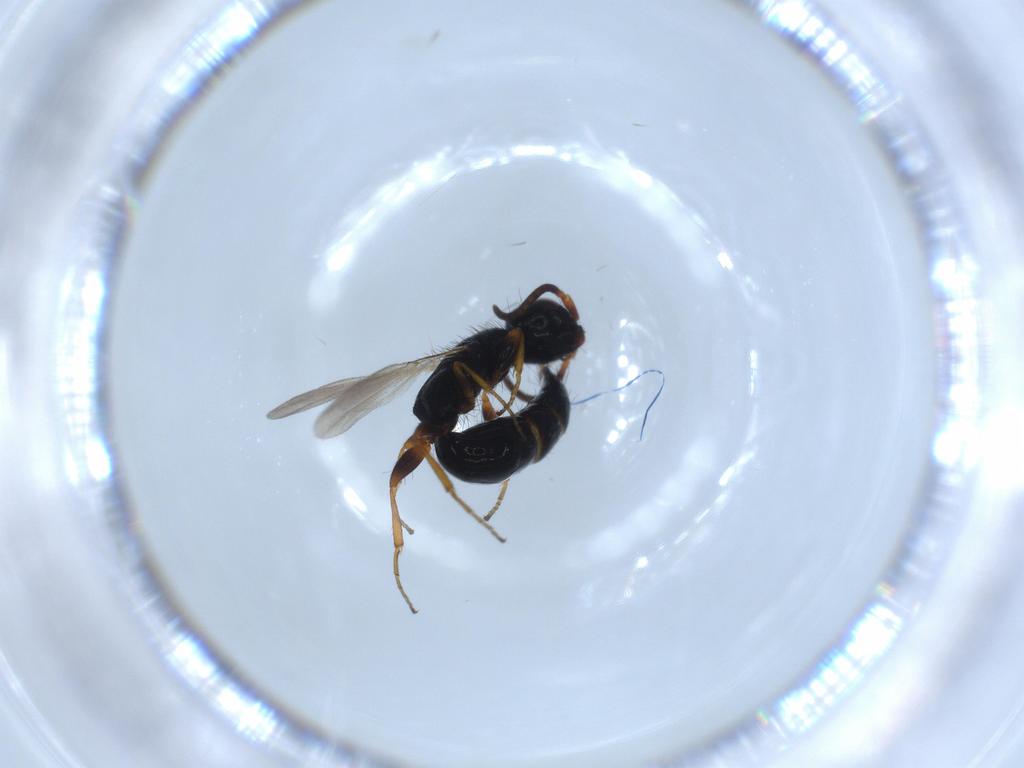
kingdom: Animalia
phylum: Arthropoda
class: Insecta
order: Hymenoptera
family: Bethylidae
